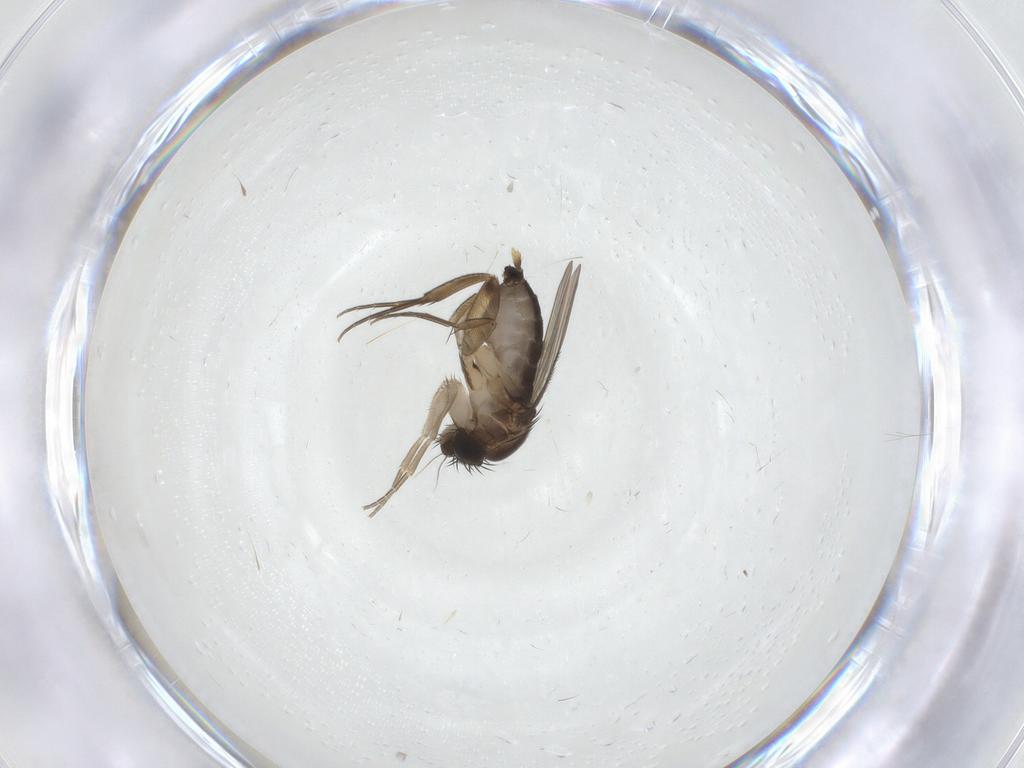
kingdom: Animalia
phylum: Arthropoda
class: Insecta
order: Diptera
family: Phoridae
